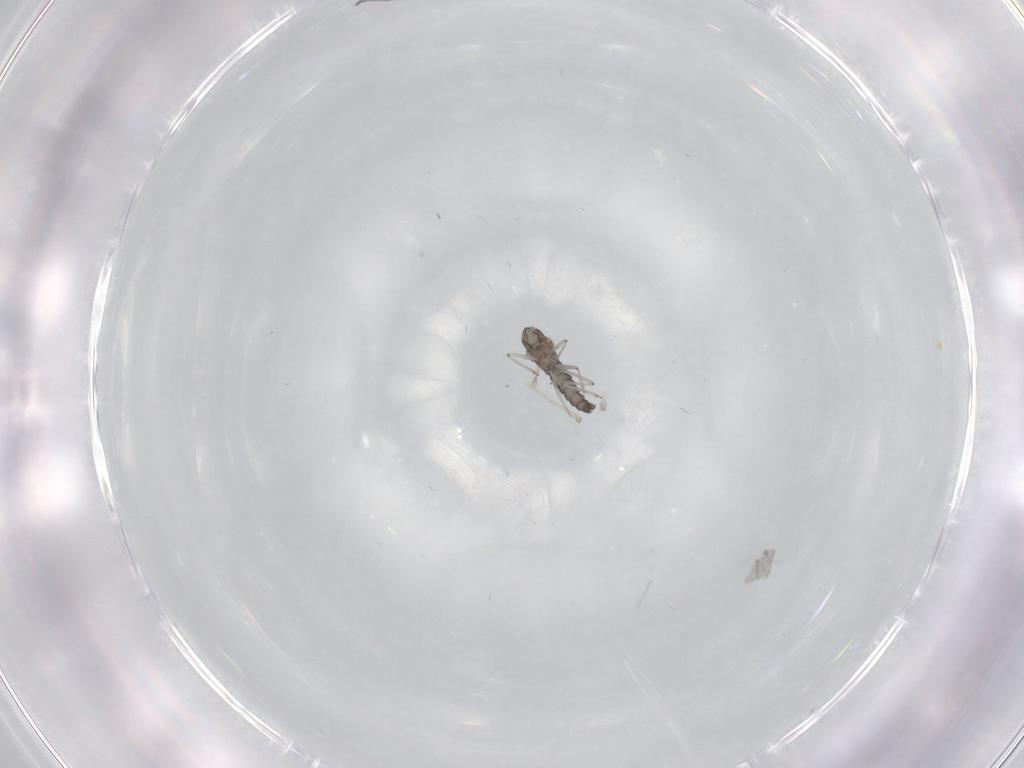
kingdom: Animalia
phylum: Arthropoda
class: Insecta
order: Diptera
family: Cecidomyiidae
